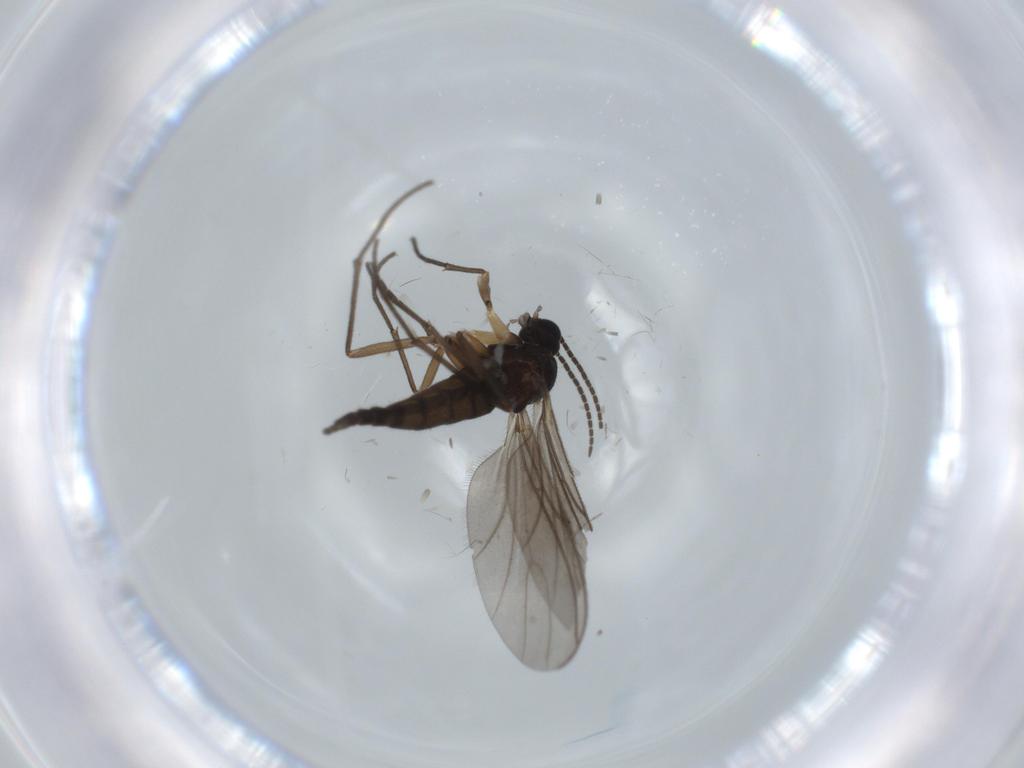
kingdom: Animalia
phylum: Arthropoda
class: Insecta
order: Diptera
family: Sciaridae
